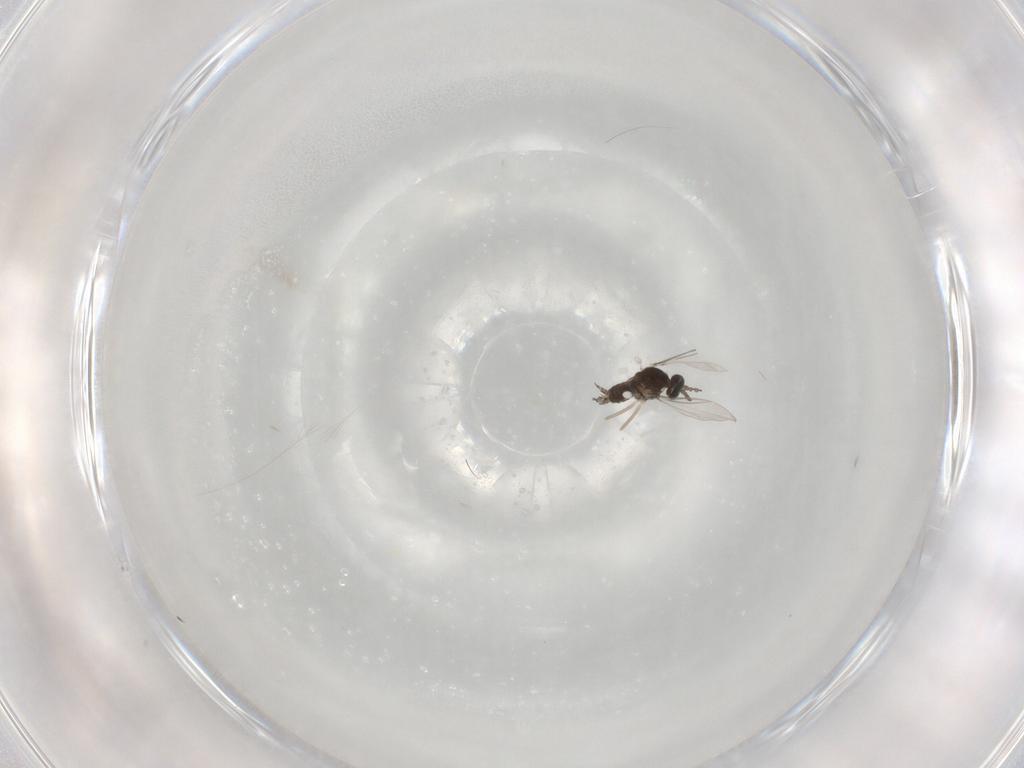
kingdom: Animalia
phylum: Arthropoda
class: Insecta
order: Diptera
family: Cecidomyiidae
